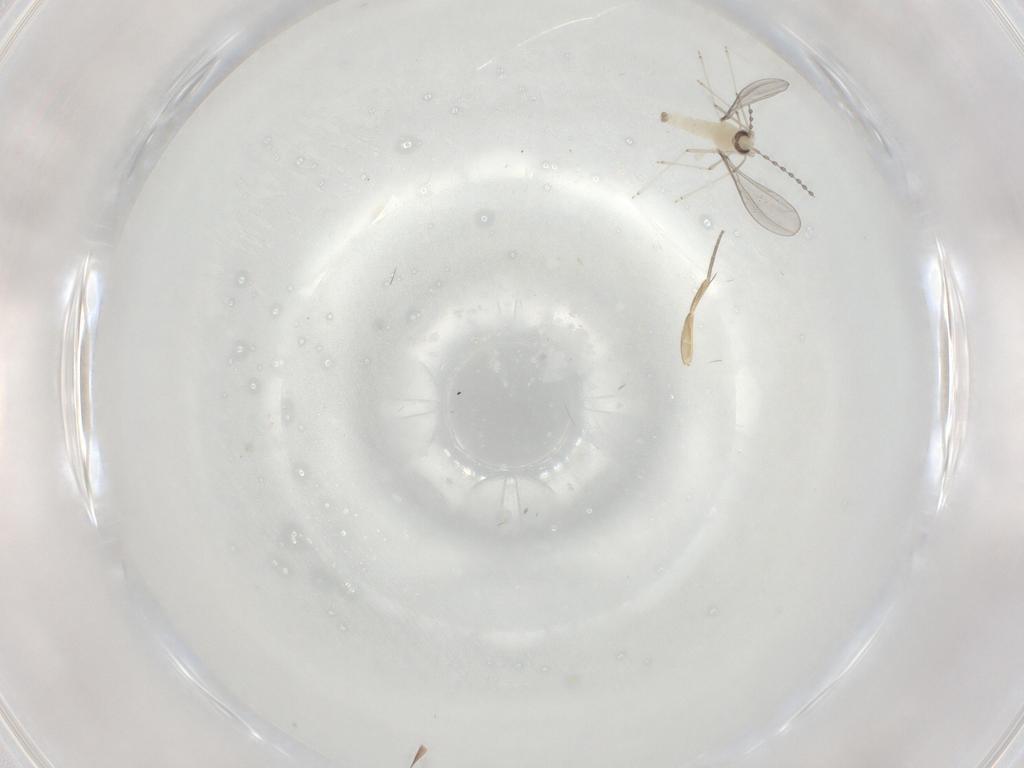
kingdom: Animalia
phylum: Arthropoda
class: Insecta
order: Diptera
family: Cecidomyiidae
